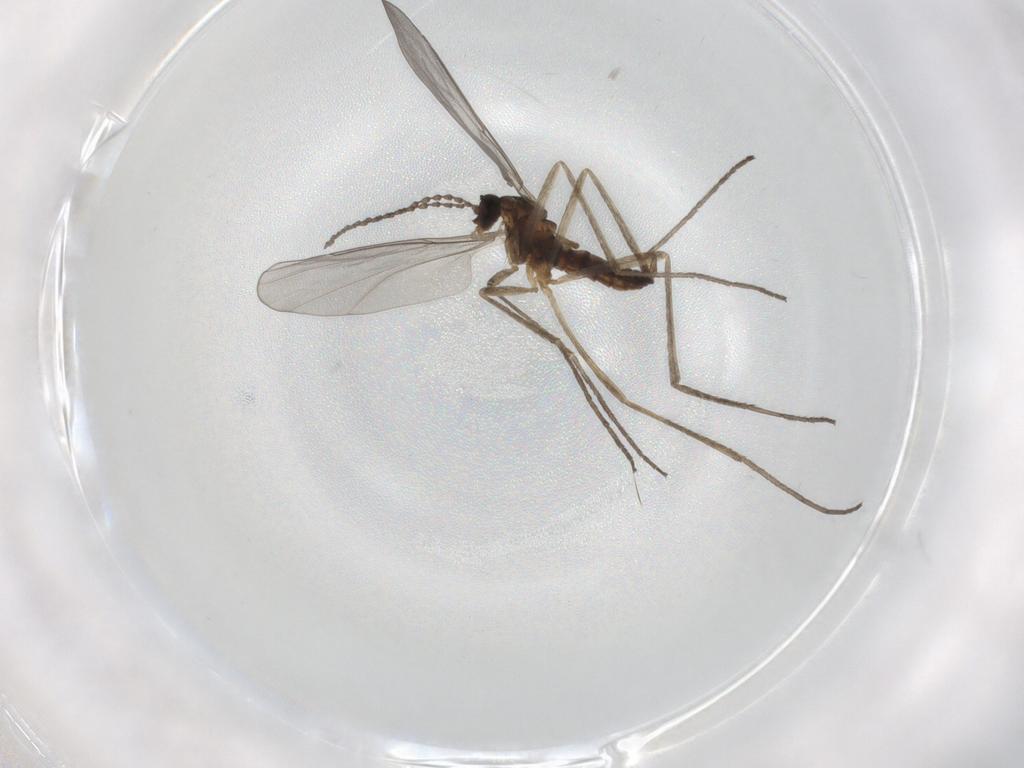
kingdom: Animalia
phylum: Arthropoda
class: Insecta
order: Diptera
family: Cecidomyiidae
